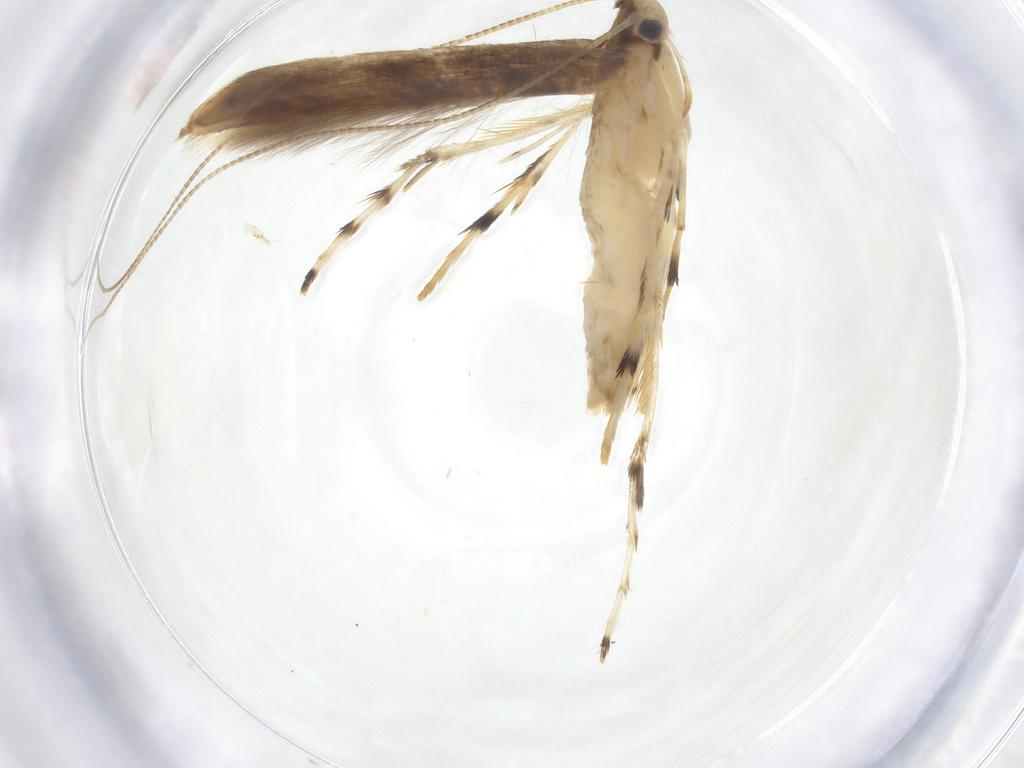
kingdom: Animalia
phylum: Arthropoda
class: Insecta
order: Lepidoptera
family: Gracillariidae
